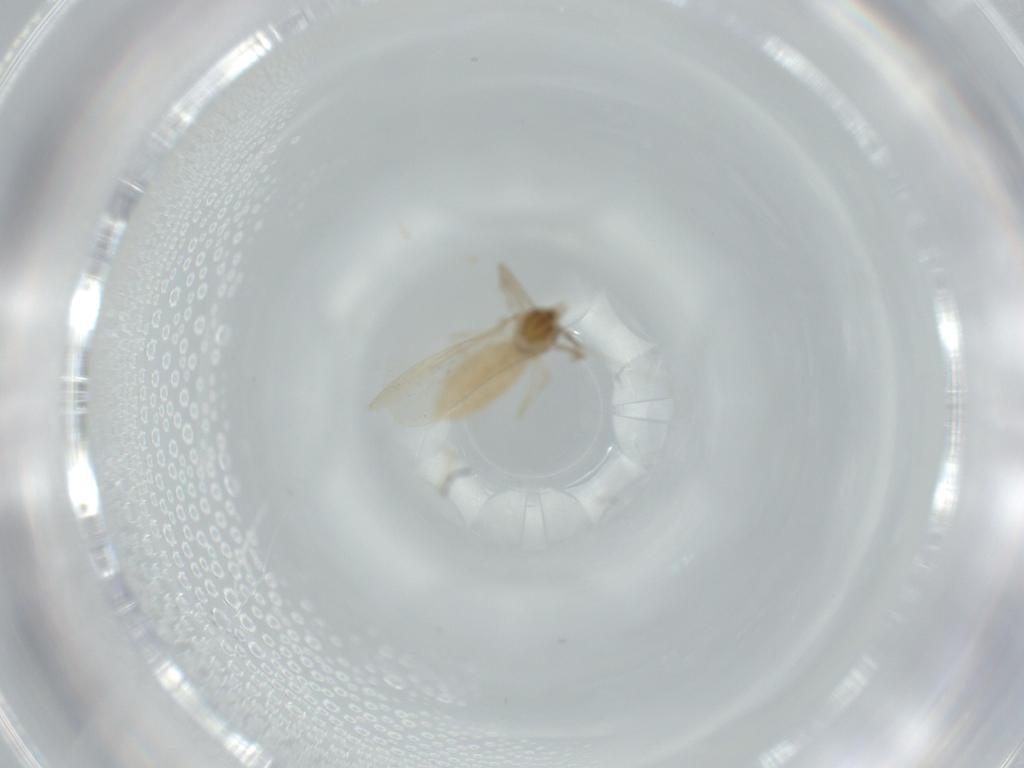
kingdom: Animalia
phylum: Arthropoda
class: Insecta
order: Diptera
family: Cecidomyiidae
